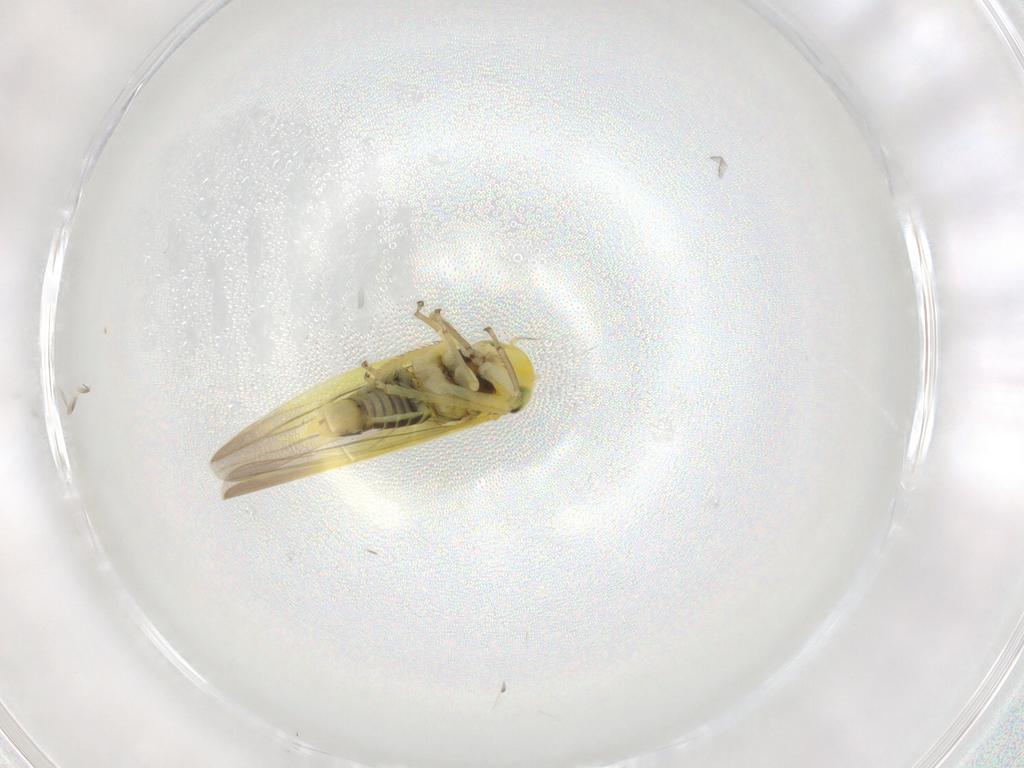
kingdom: Animalia
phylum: Arthropoda
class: Insecta
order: Hemiptera
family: Cicadellidae
